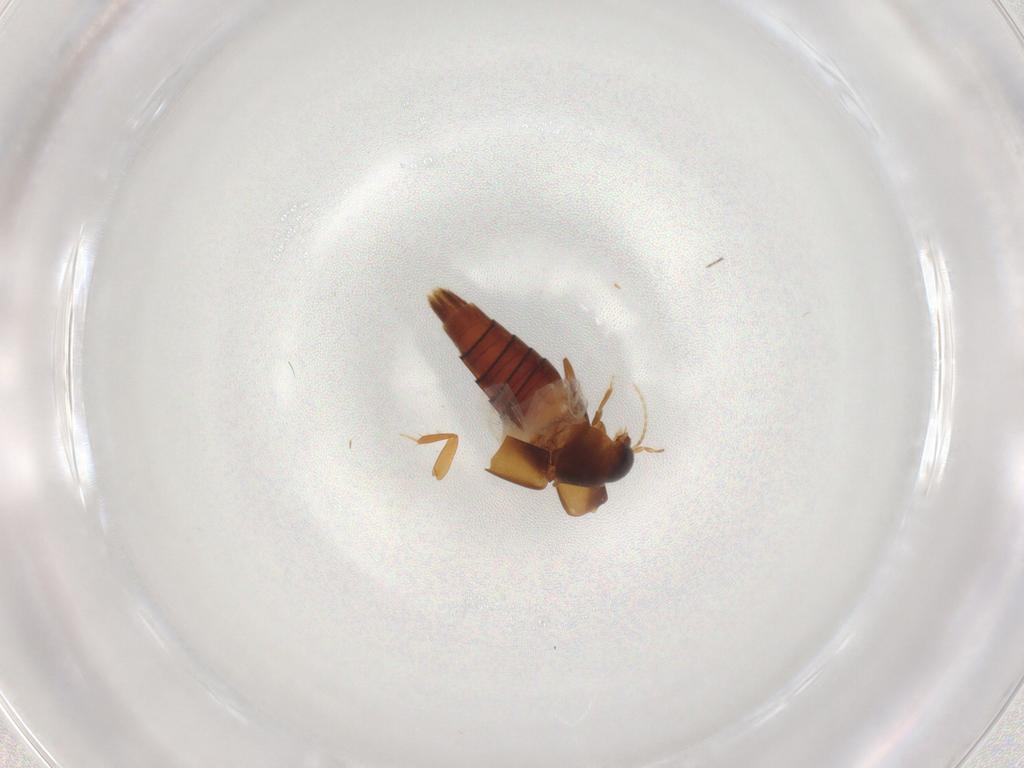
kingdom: Animalia
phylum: Arthropoda
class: Insecta
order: Coleoptera
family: Staphylinidae
